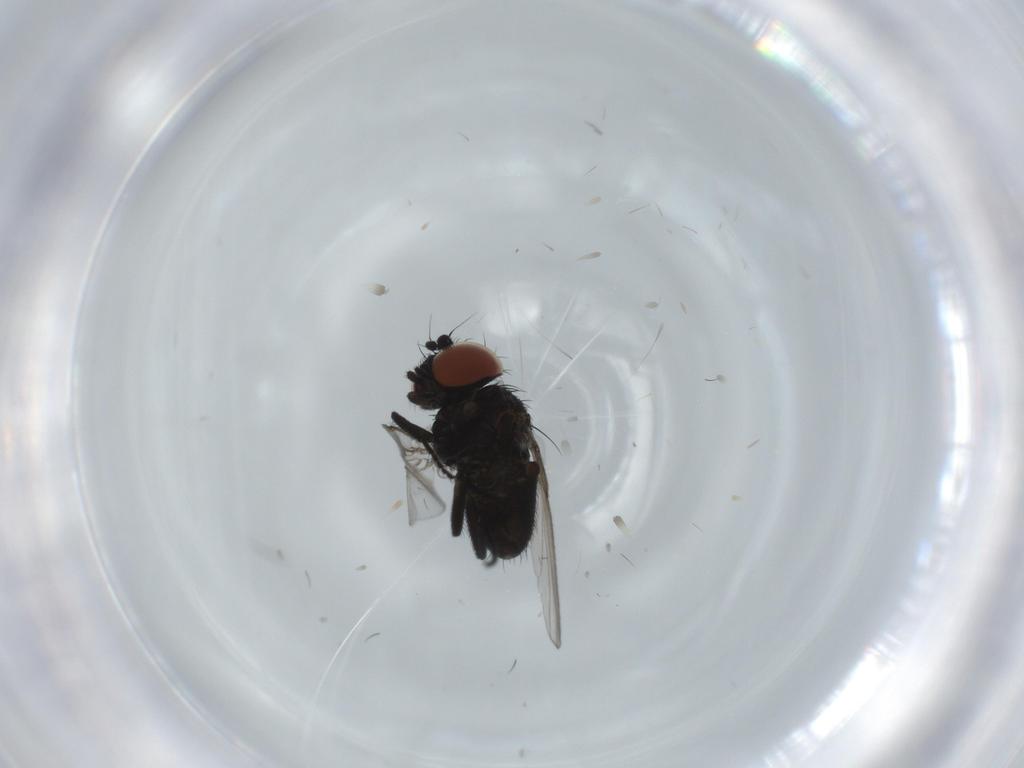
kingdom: Animalia
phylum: Arthropoda
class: Insecta
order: Diptera
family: Milichiidae
